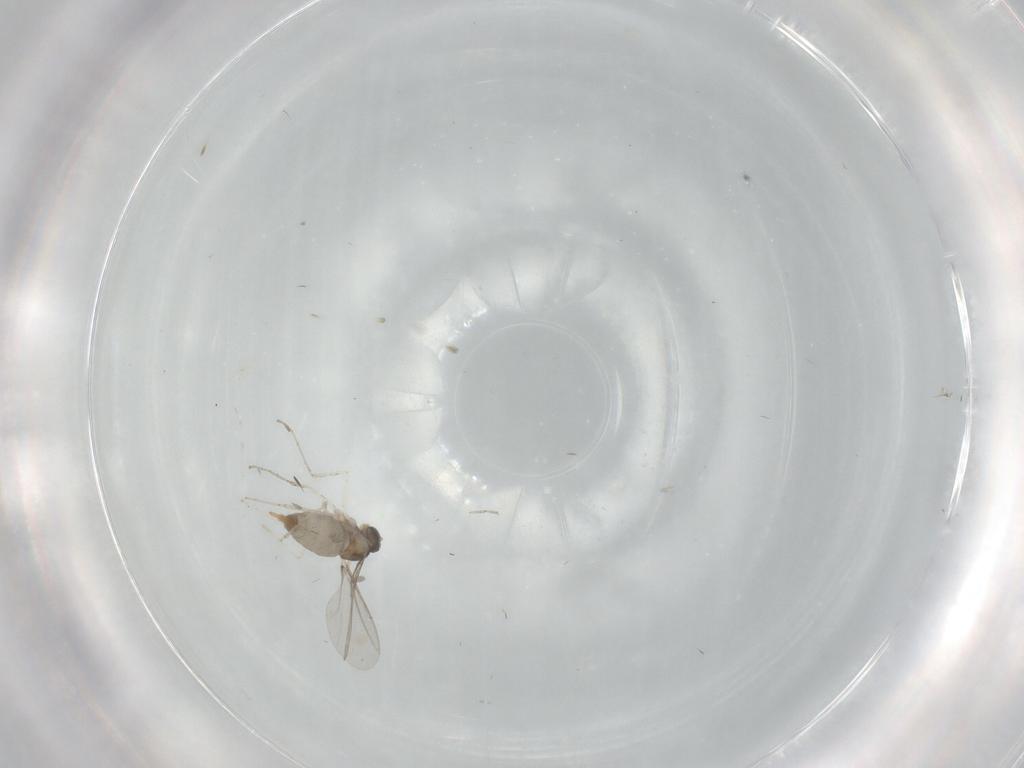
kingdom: Animalia
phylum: Arthropoda
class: Insecta
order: Diptera
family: Cecidomyiidae
